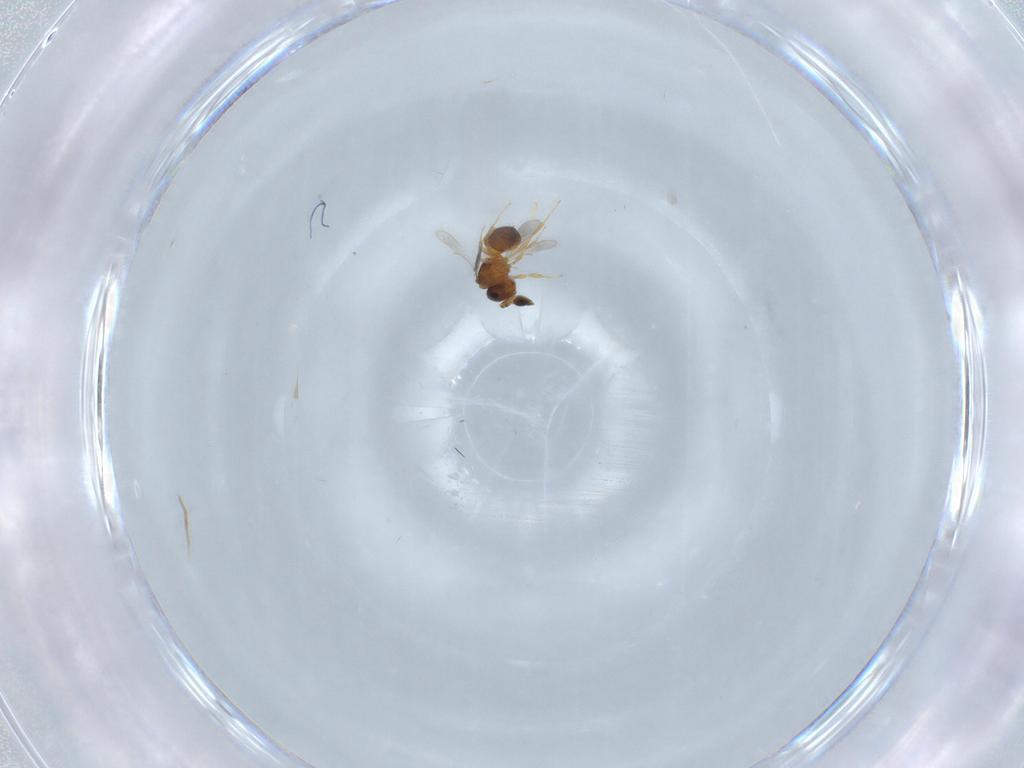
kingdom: Animalia
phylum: Arthropoda
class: Insecta
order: Hymenoptera
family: Scelionidae
